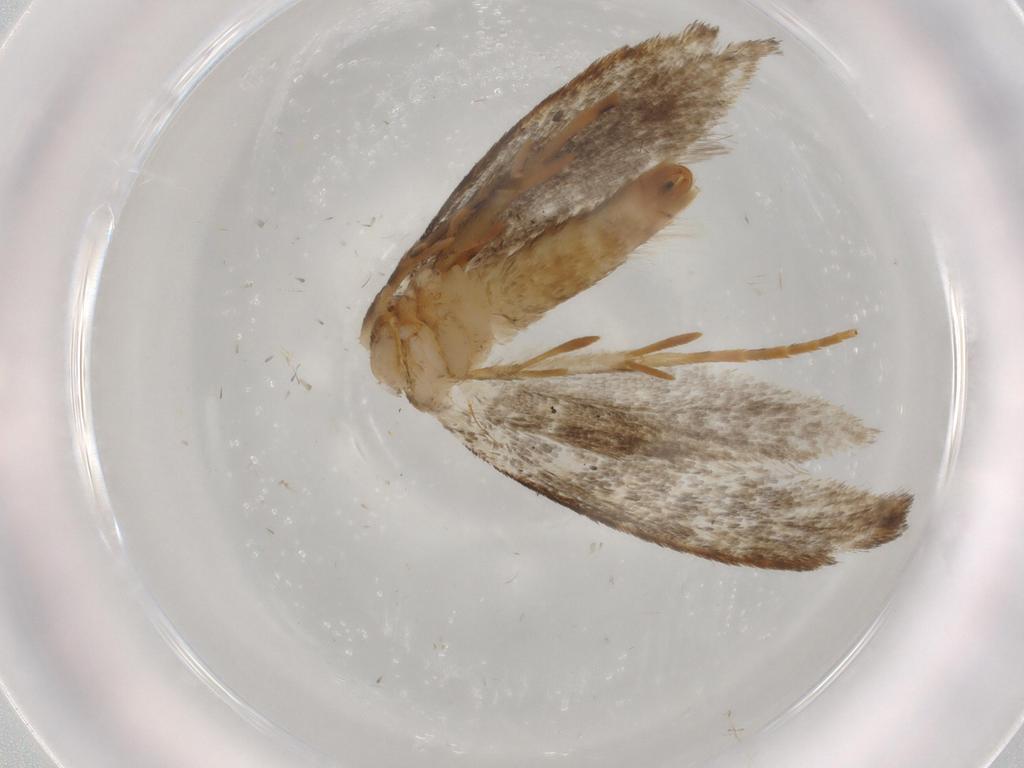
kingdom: Animalia
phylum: Arthropoda
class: Insecta
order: Lepidoptera
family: Tineidae
